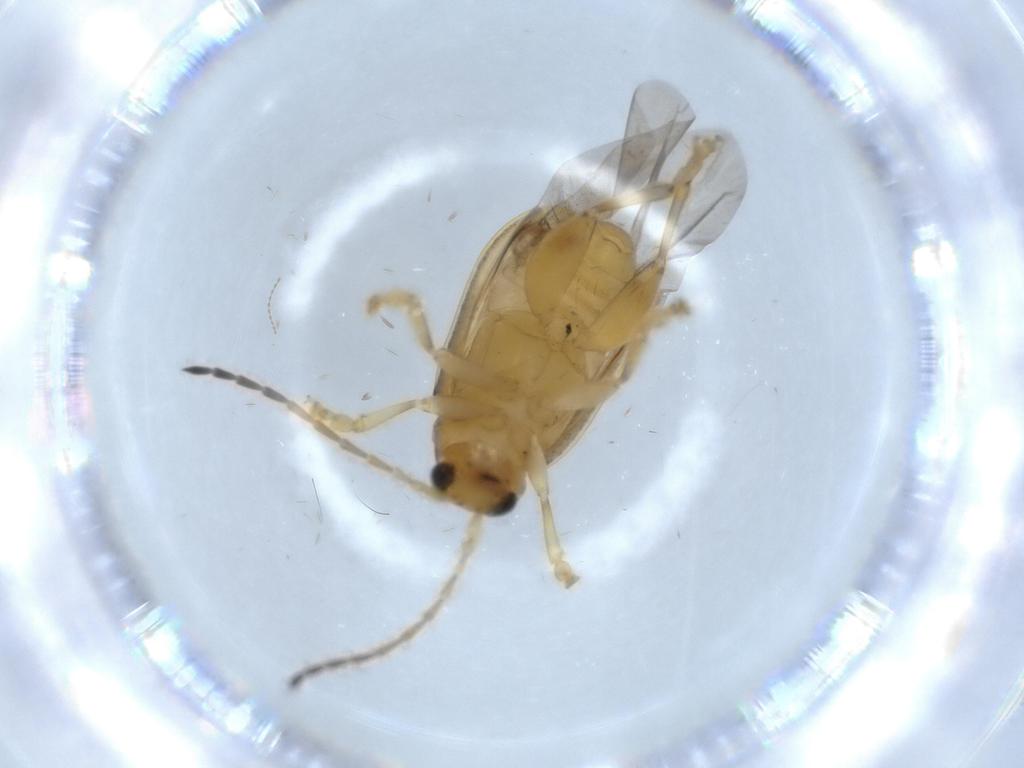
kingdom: Animalia
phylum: Arthropoda
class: Insecta
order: Coleoptera
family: Chrysomelidae
